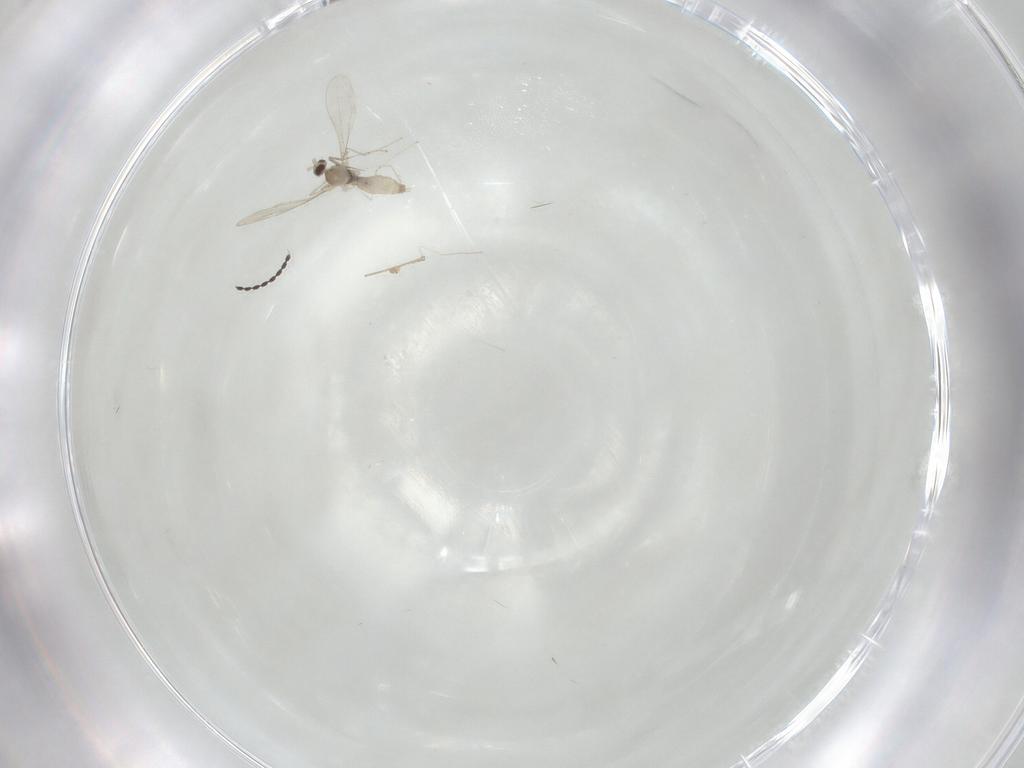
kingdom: Animalia
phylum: Arthropoda
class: Insecta
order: Diptera
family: Cecidomyiidae
